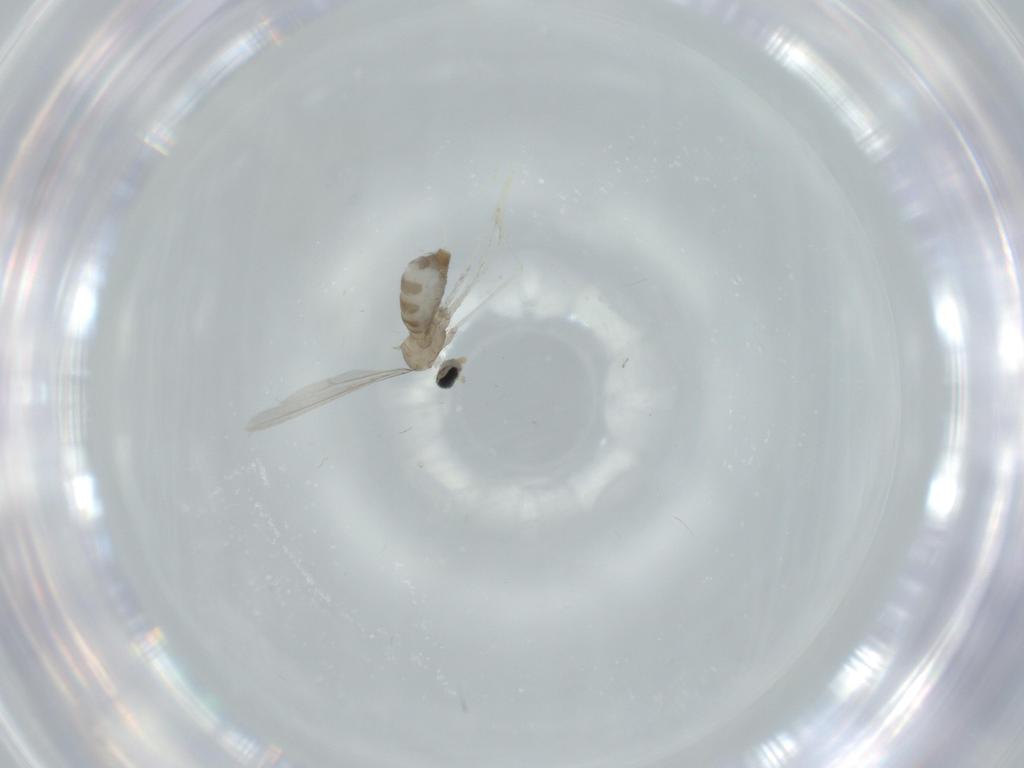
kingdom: Animalia
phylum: Arthropoda
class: Insecta
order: Diptera
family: Cecidomyiidae
